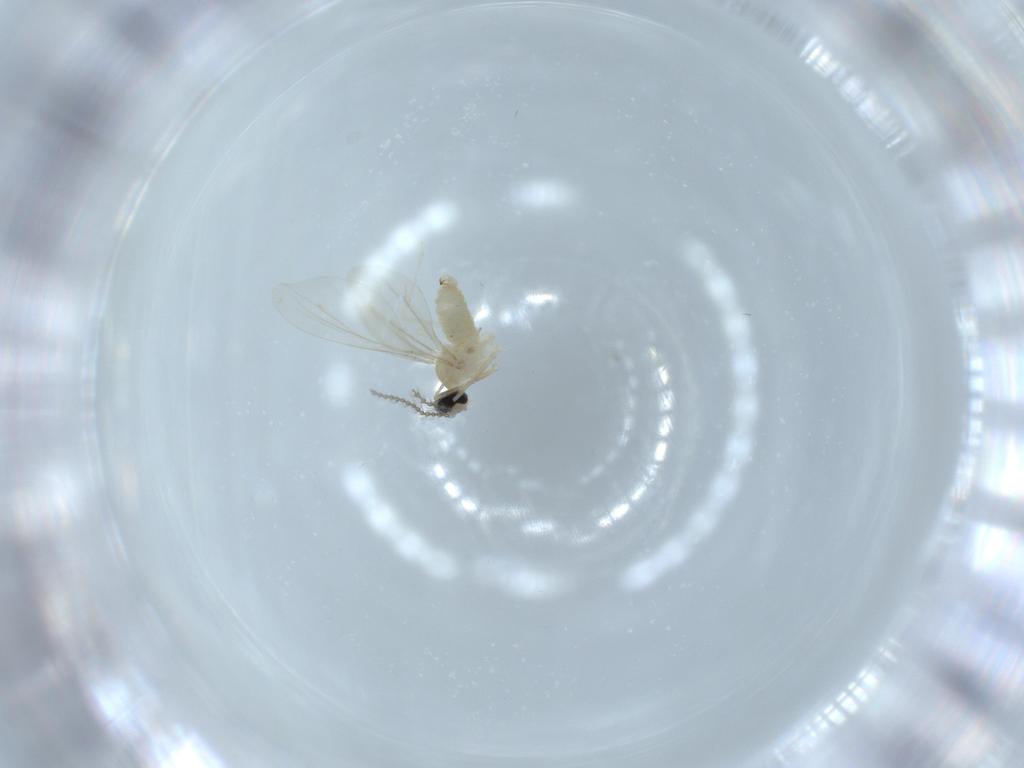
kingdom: Animalia
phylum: Arthropoda
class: Insecta
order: Diptera
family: Cecidomyiidae
